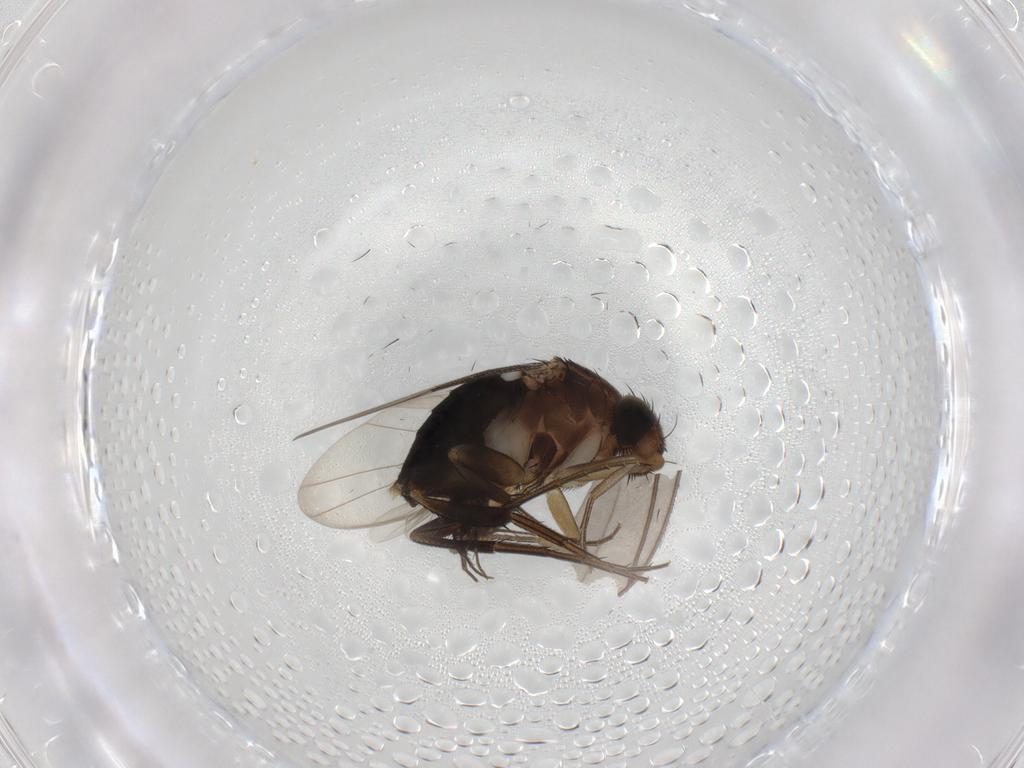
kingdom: Animalia
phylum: Arthropoda
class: Insecta
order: Diptera
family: Phoridae
